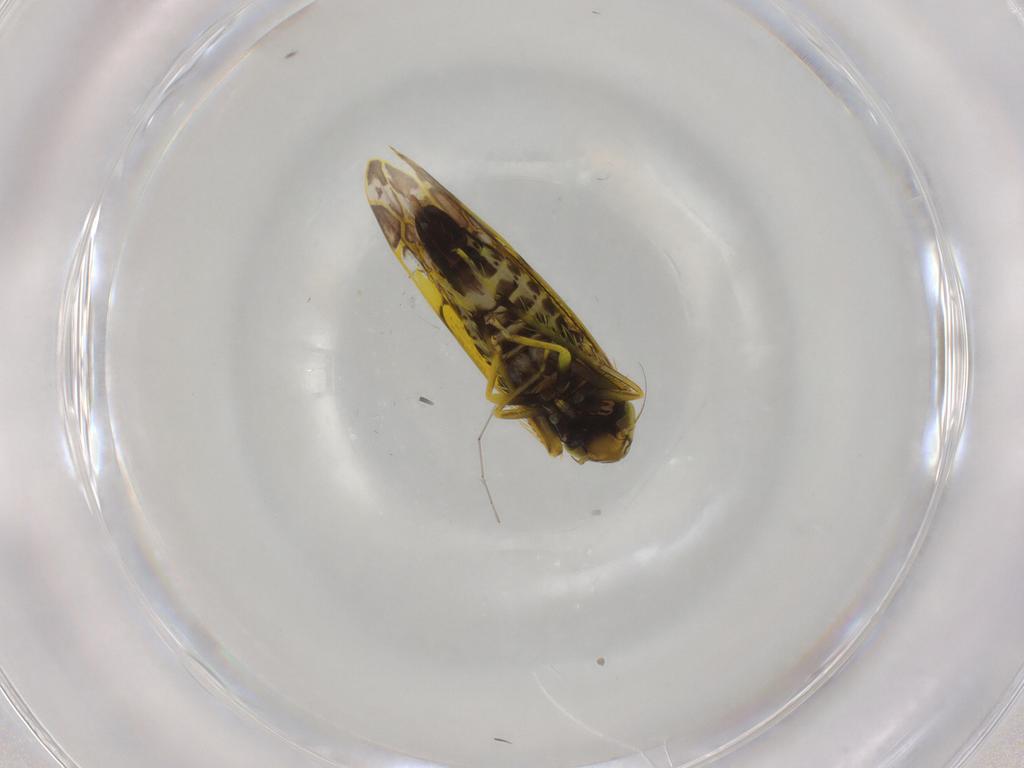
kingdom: Animalia
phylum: Arthropoda
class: Insecta
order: Hemiptera
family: Cicadellidae
